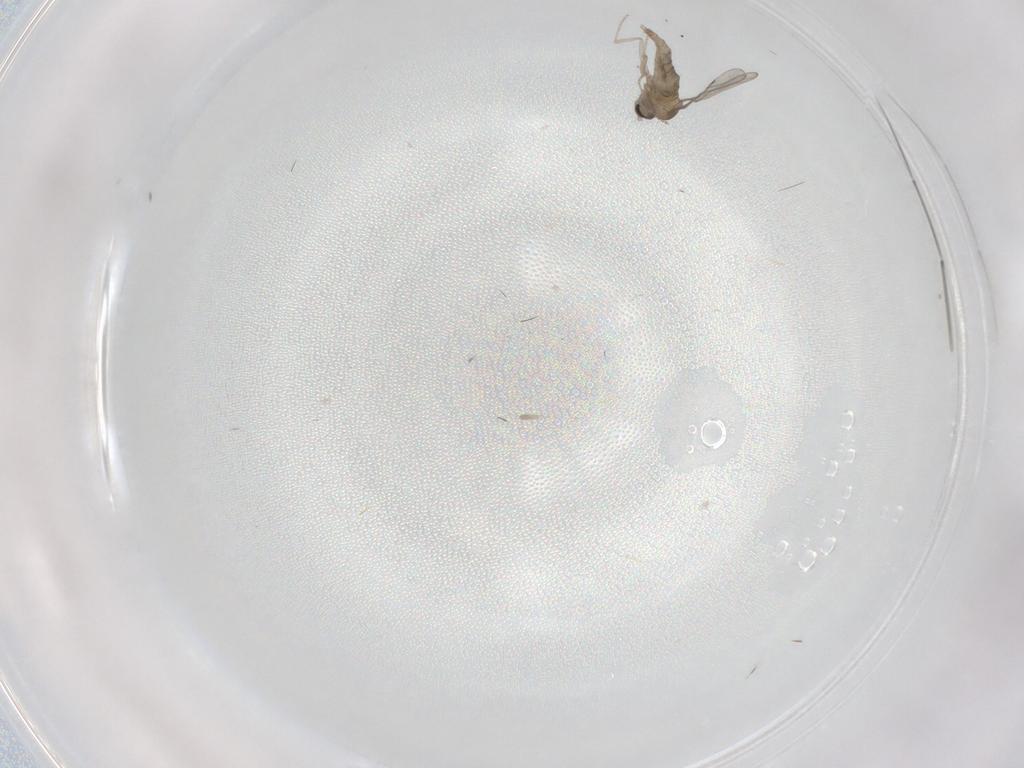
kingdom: Animalia
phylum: Arthropoda
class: Insecta
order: Diptera
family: Cecidomyiidae
